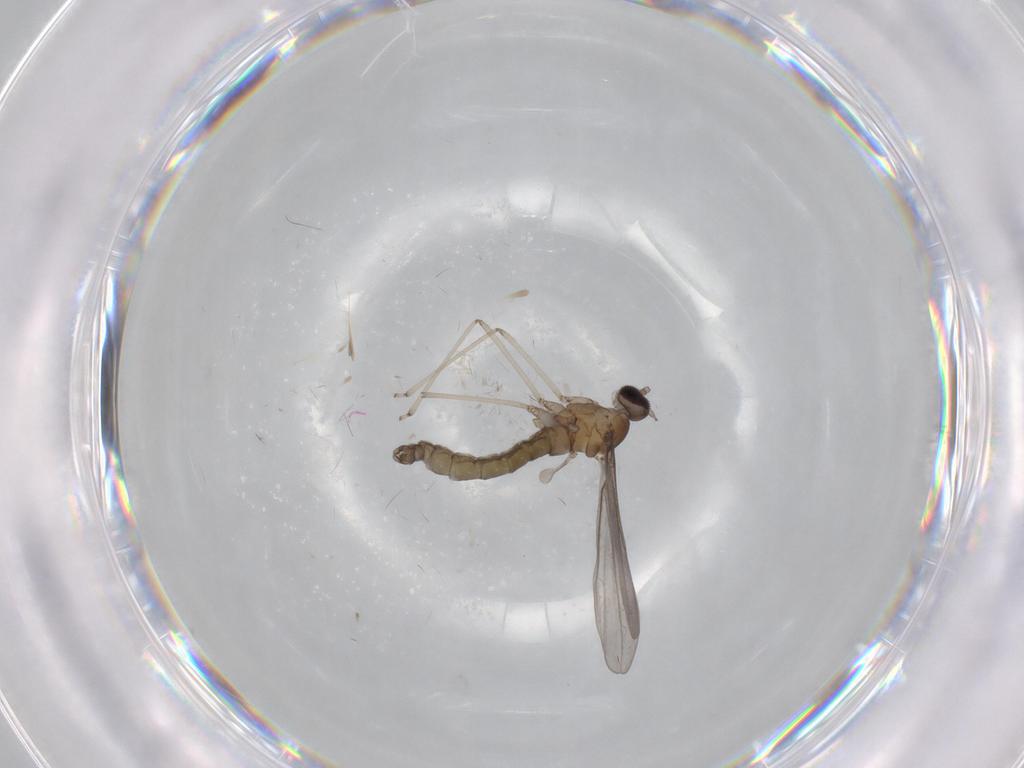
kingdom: Animalia
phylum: Arthropoda
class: Insecta
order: Diptera
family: Cecidomyiidae
